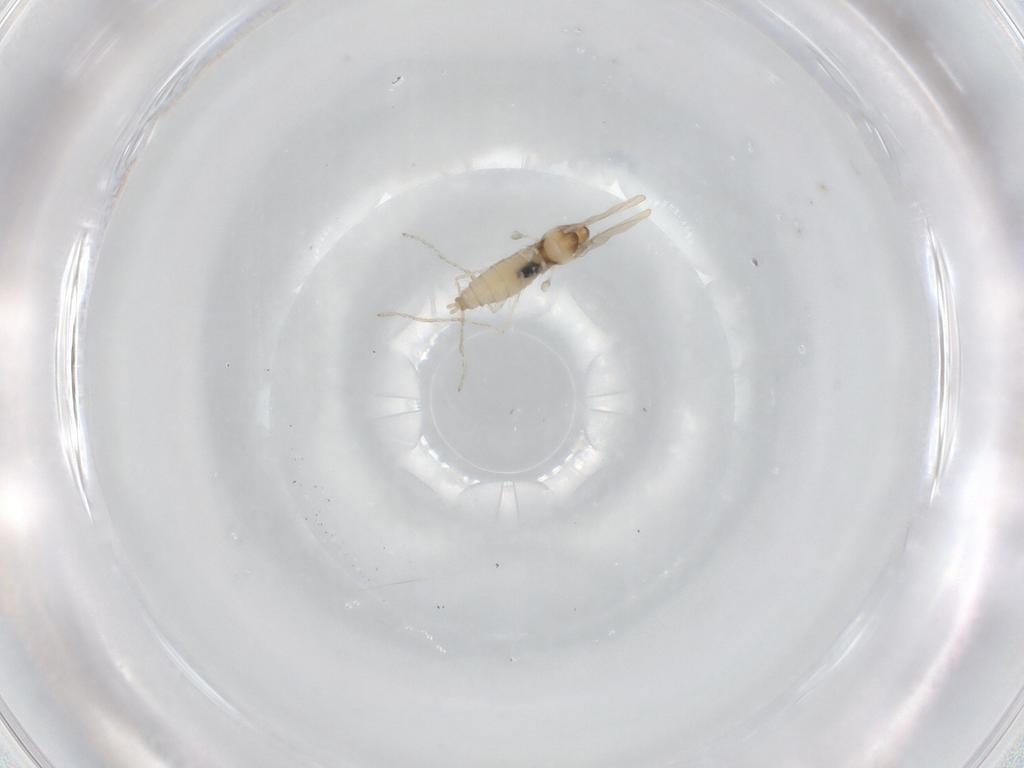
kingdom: Animalia
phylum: Arthropoda
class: Insecta
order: Diptera
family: Cecidomyiidae
